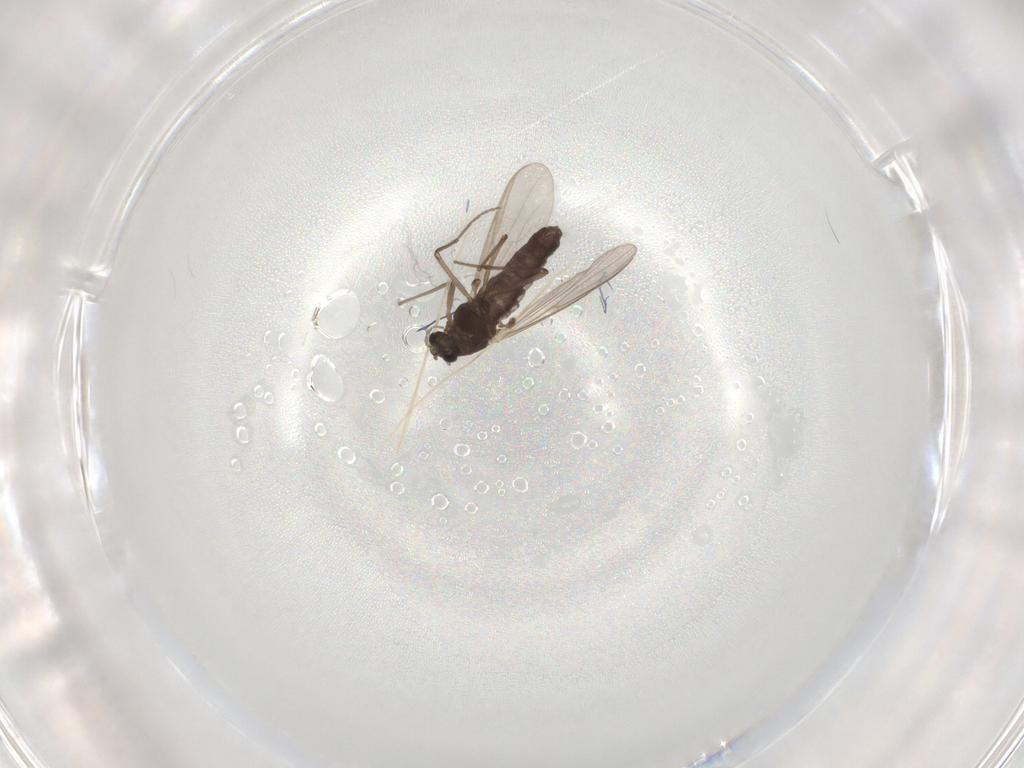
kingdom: Animalia
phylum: Arthropoda
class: Insecta
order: Diptera
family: Chironomidae
